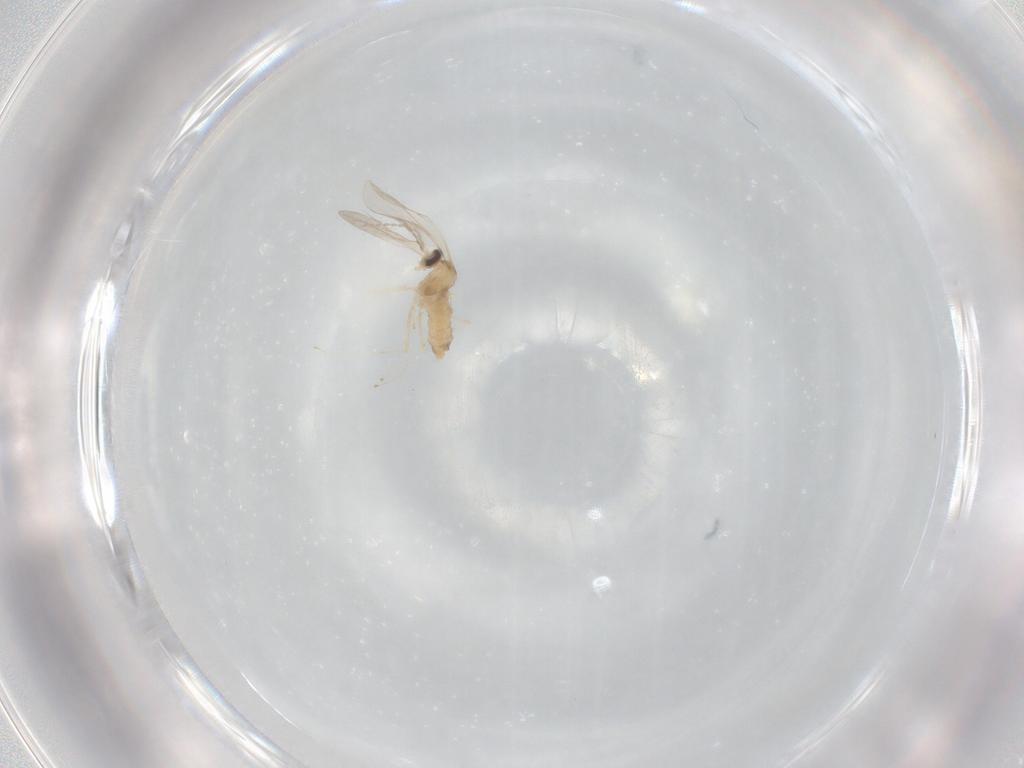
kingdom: Animalia
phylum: Arthropoda
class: Insecta
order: Diptera
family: Cecidomyiidae
